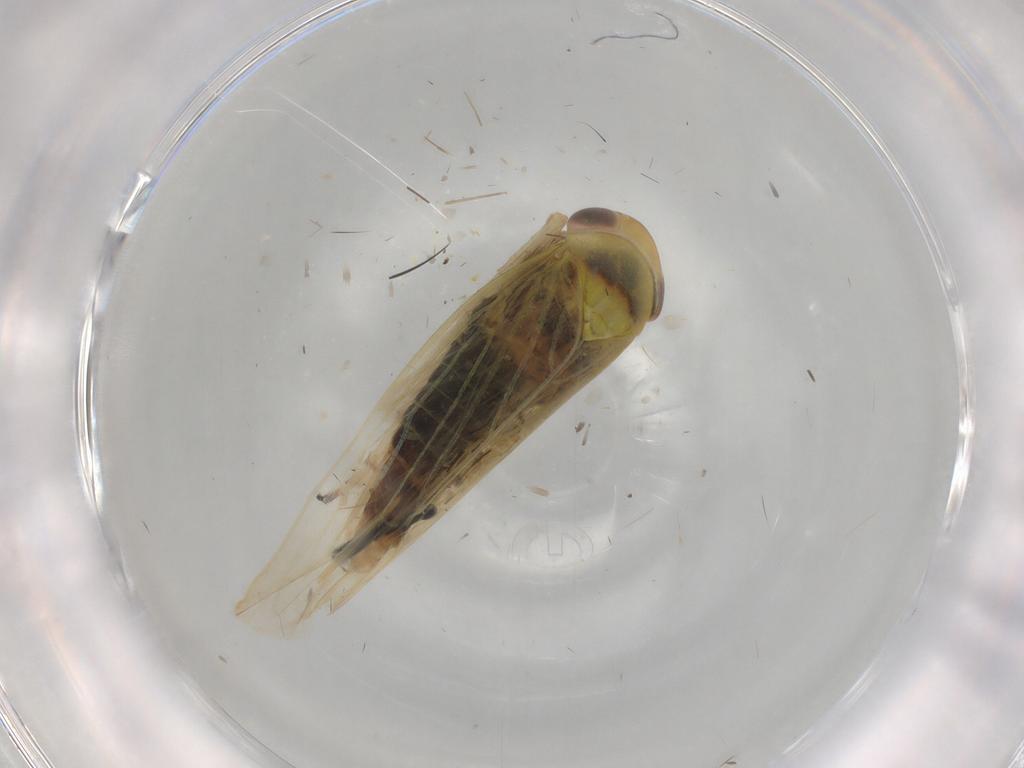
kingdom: Animalia
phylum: Arthropoda
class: Insecta
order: Hemiptera
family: Cicadellidae
